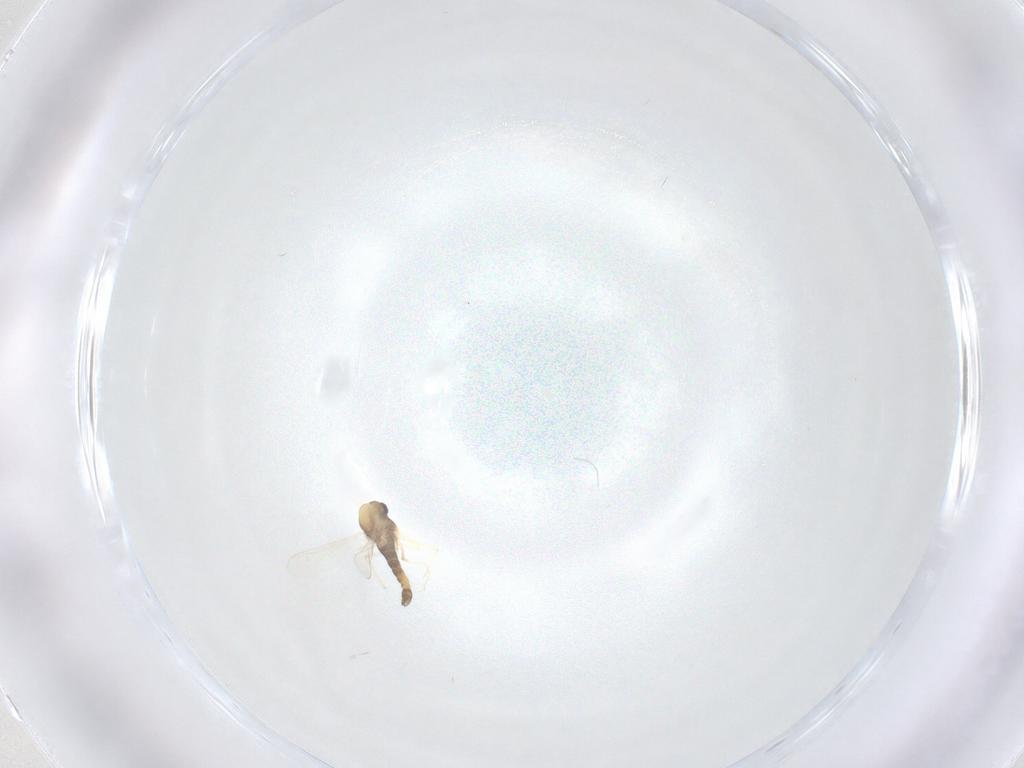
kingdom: Animalia
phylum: Arthropoda
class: Insecta
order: Diptera
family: Chironomidae
